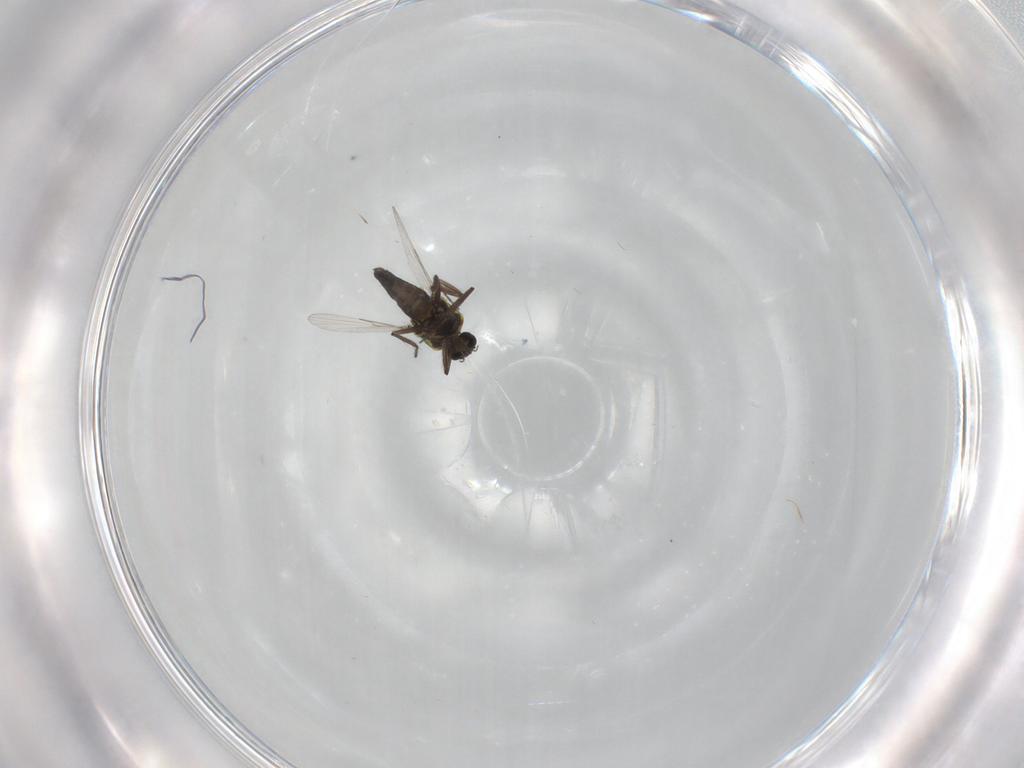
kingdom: Animalia
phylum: Arthropoda
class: Insecta
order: Diptera
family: Ceratopogonidae
